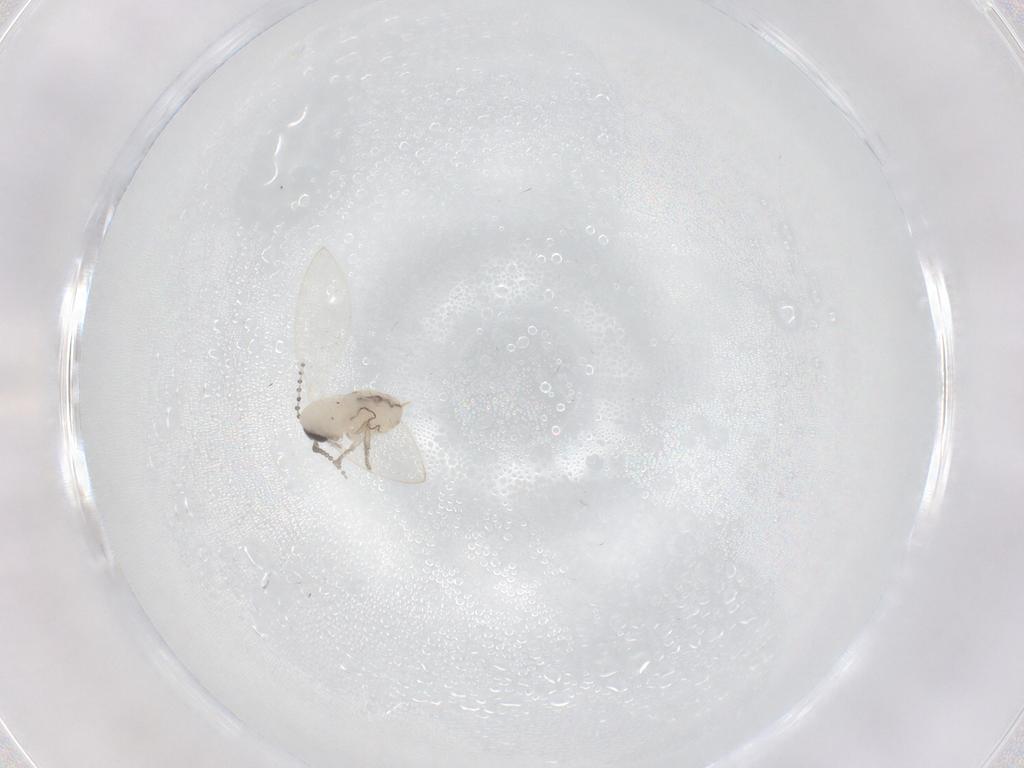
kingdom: Animalia
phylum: Arthropoda
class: Insecta
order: Diptera
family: Psychodidae
